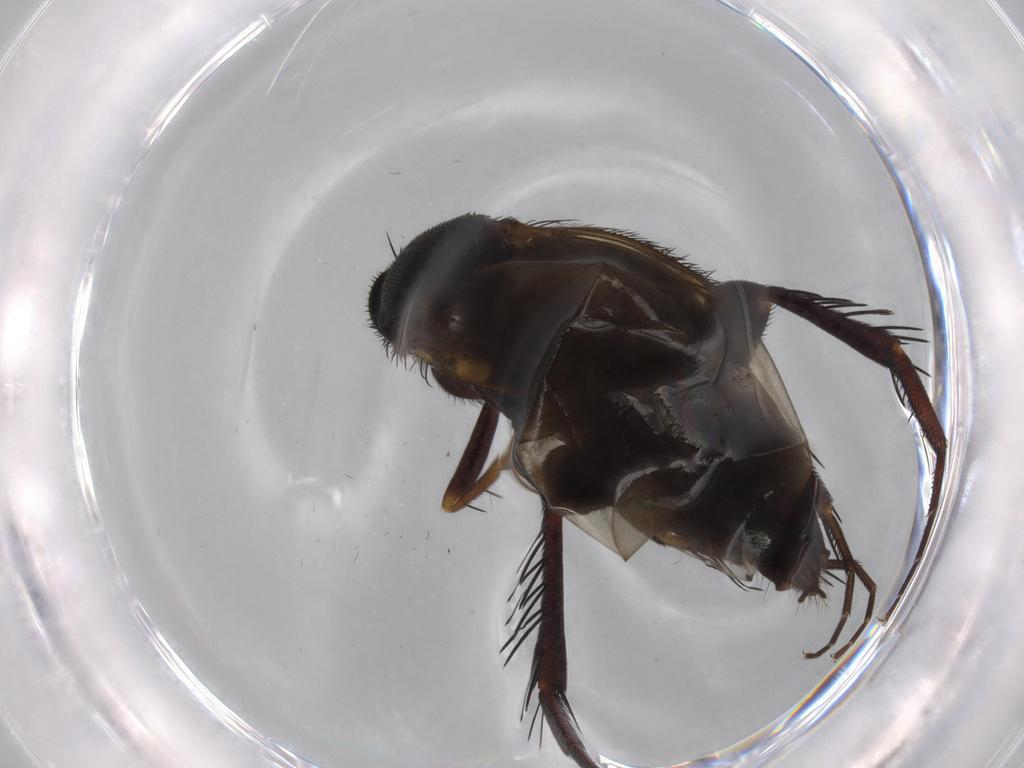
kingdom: Animalia
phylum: Arthropoda
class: Insecta
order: Diptera
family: Phoridae
